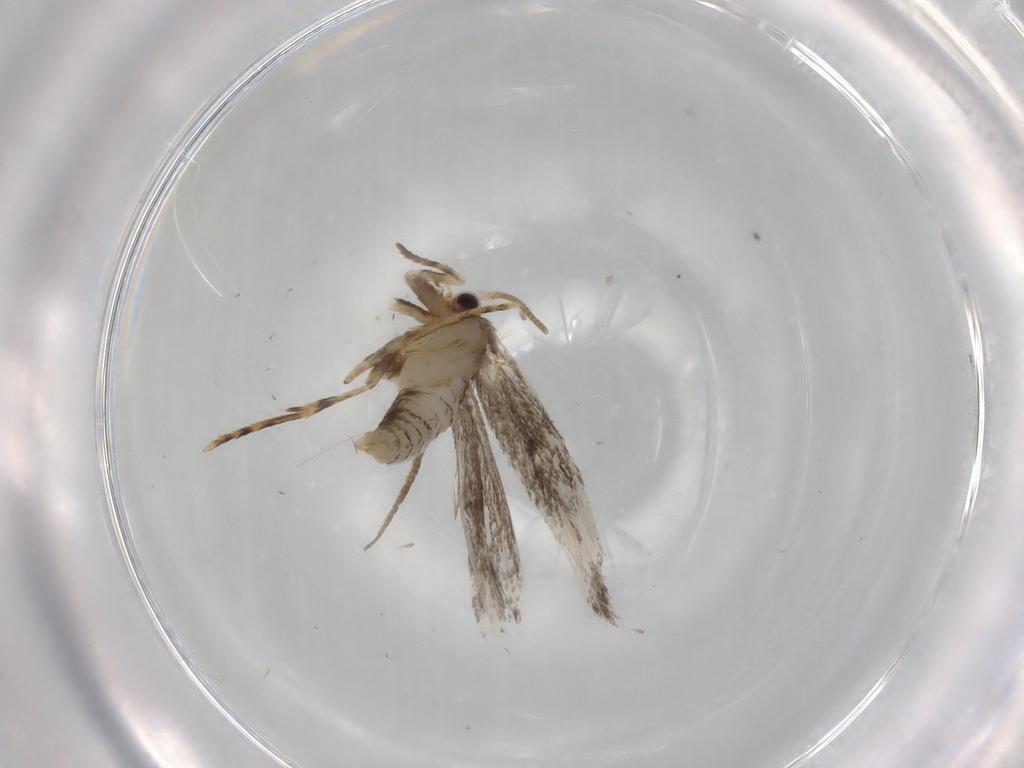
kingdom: Animalia
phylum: Arthropoda
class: Insecta
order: Lepidoptera
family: Tineidae
